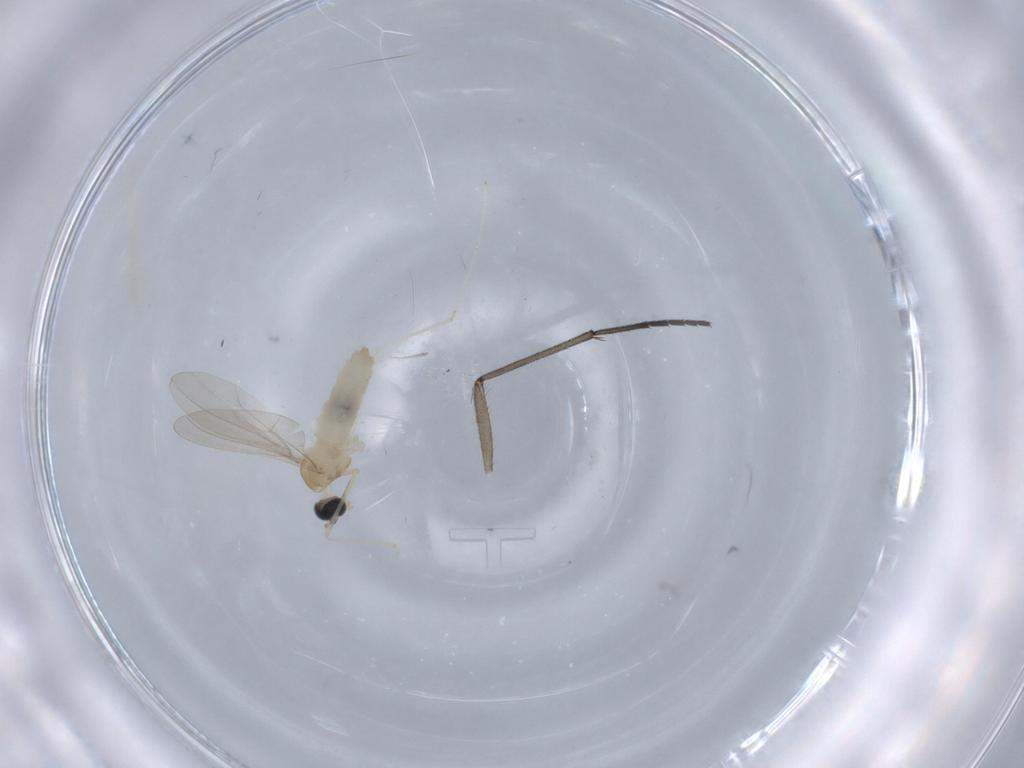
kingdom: Animalia
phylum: Arthropoda
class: Insecta
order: Diptera
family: Cecidomyiidae
